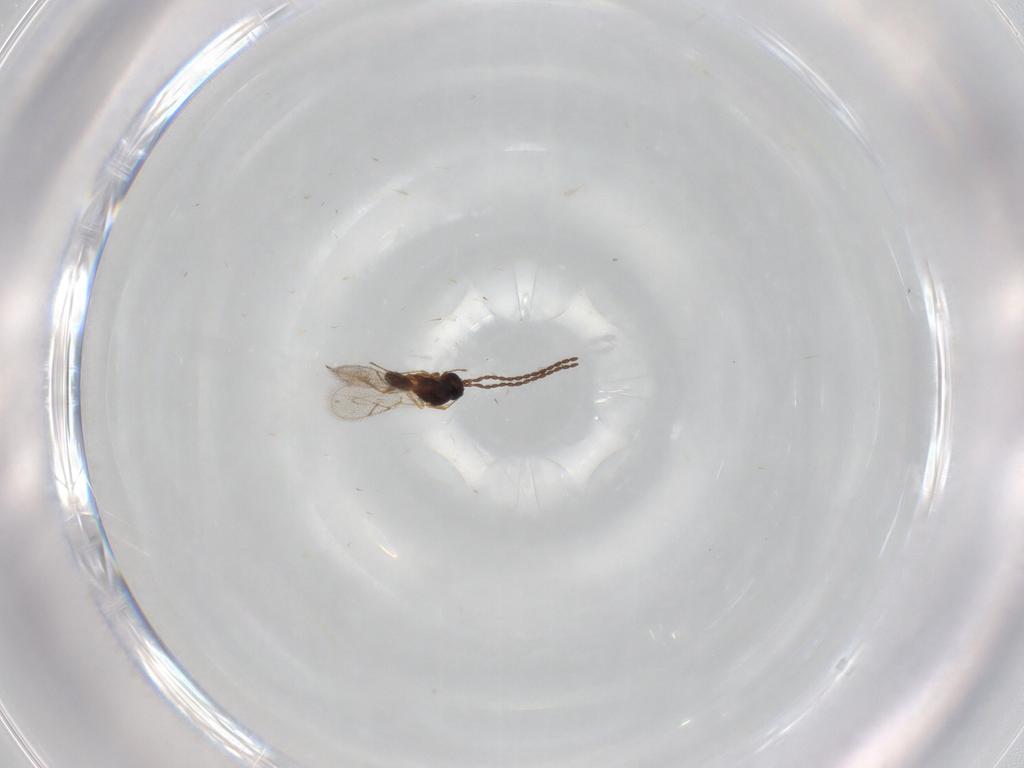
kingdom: Animalia
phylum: Arthropoda
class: Insecta
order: Hymenoptera
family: Figitidae
